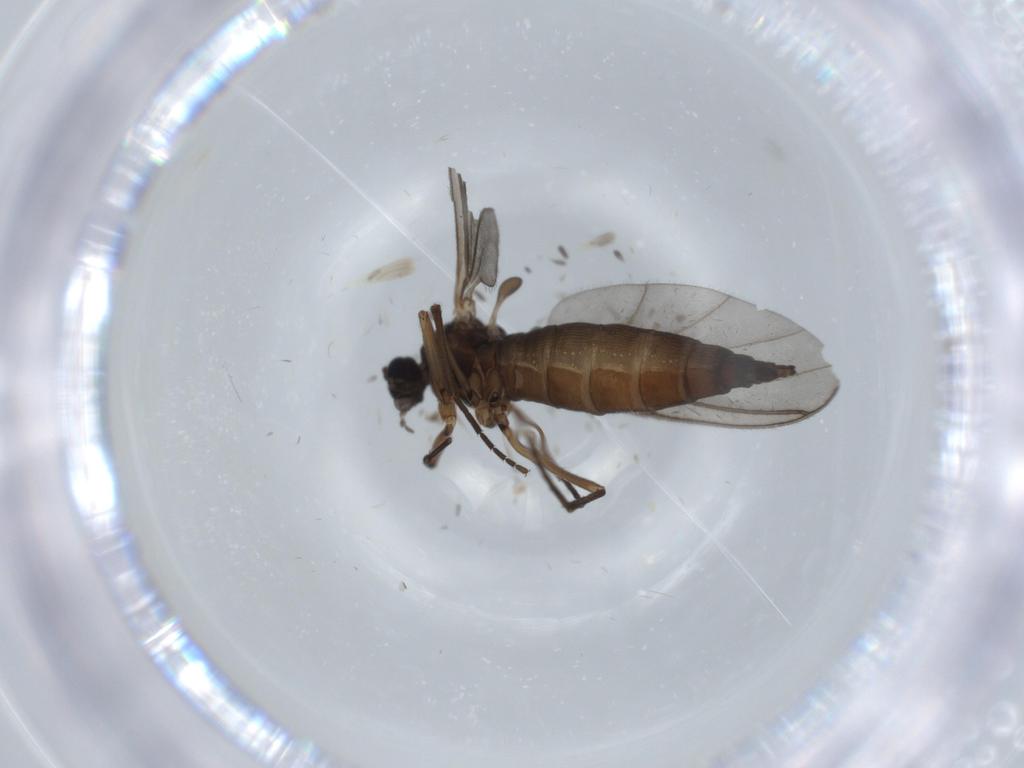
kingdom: Animalia
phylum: Arthropoda
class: Insecta
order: Diptera
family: Sciaridae
